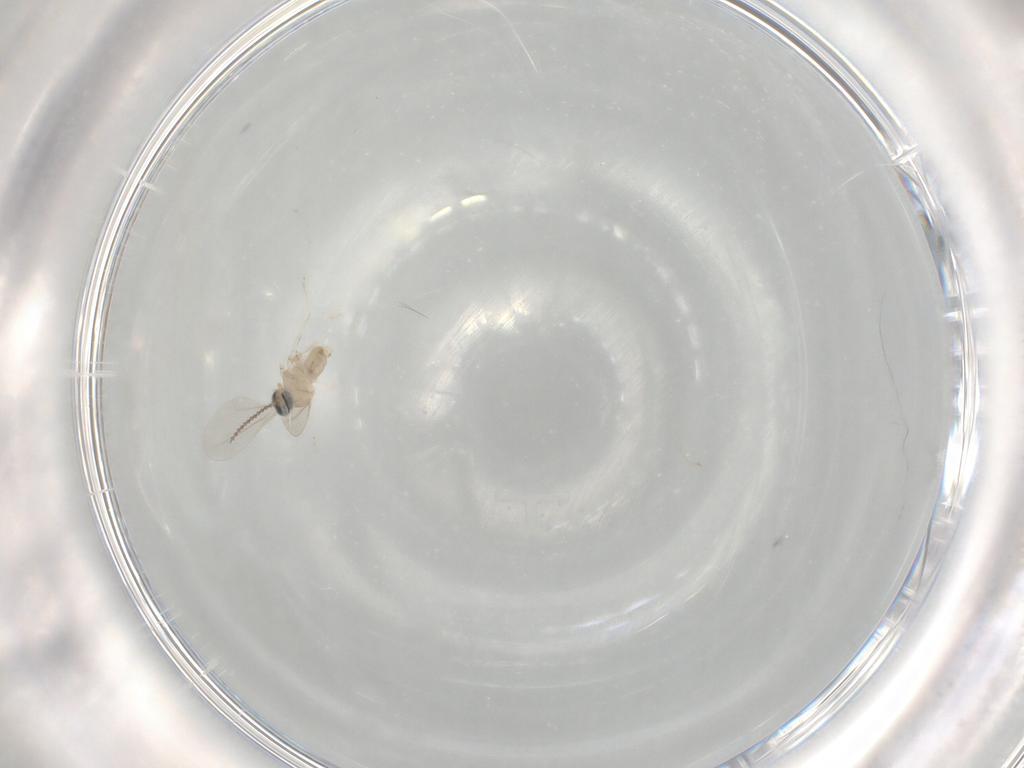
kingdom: Animalia
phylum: Arthropoda
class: Insecta
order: Diptera
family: Cecidomyiidae
